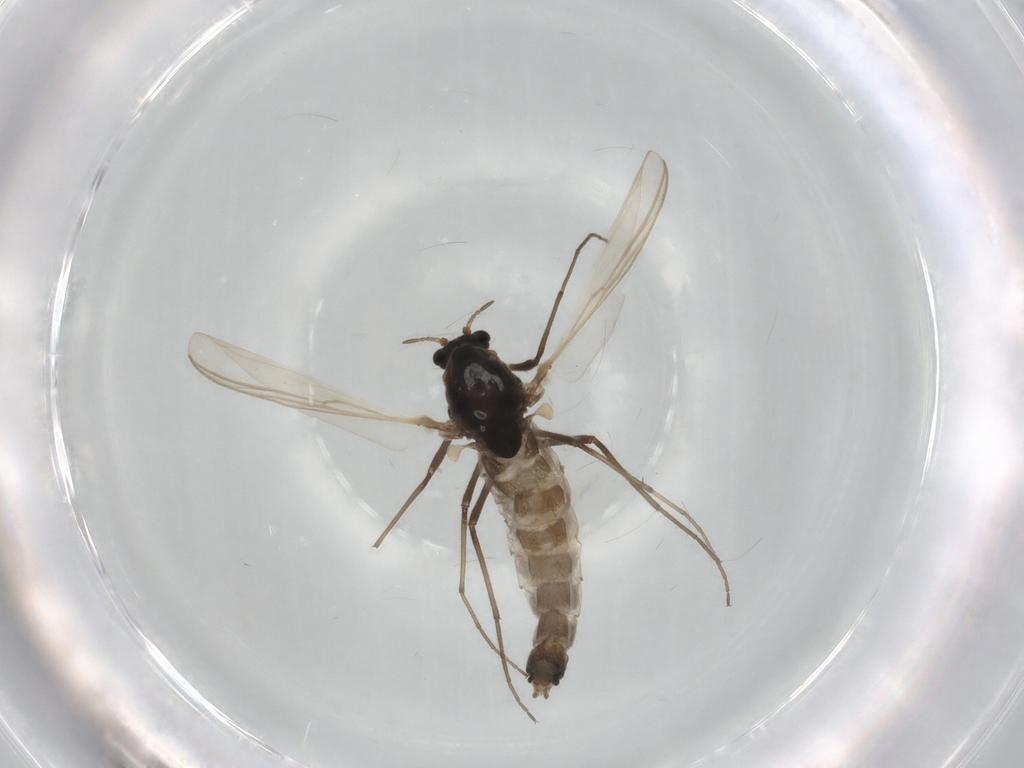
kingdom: Animalia
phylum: Arthropoda
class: Insecta
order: Diptera
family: Chironomidae
